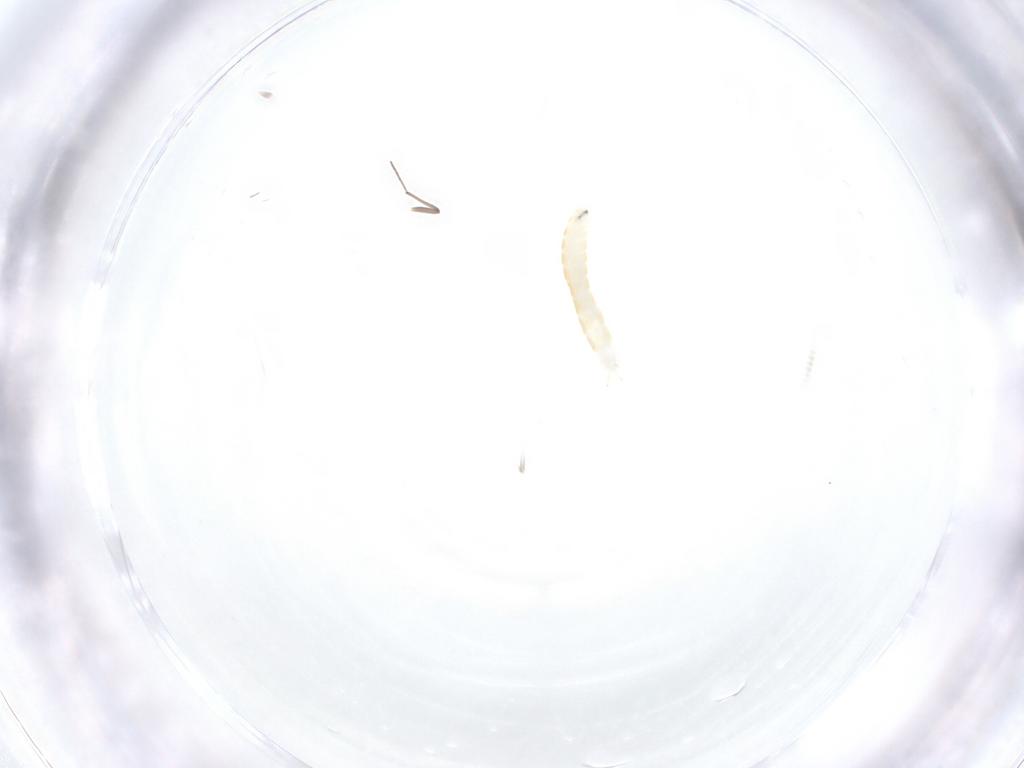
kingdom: Animalia
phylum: Arthropoda
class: Insecta
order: Diptera
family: Chironomidae
